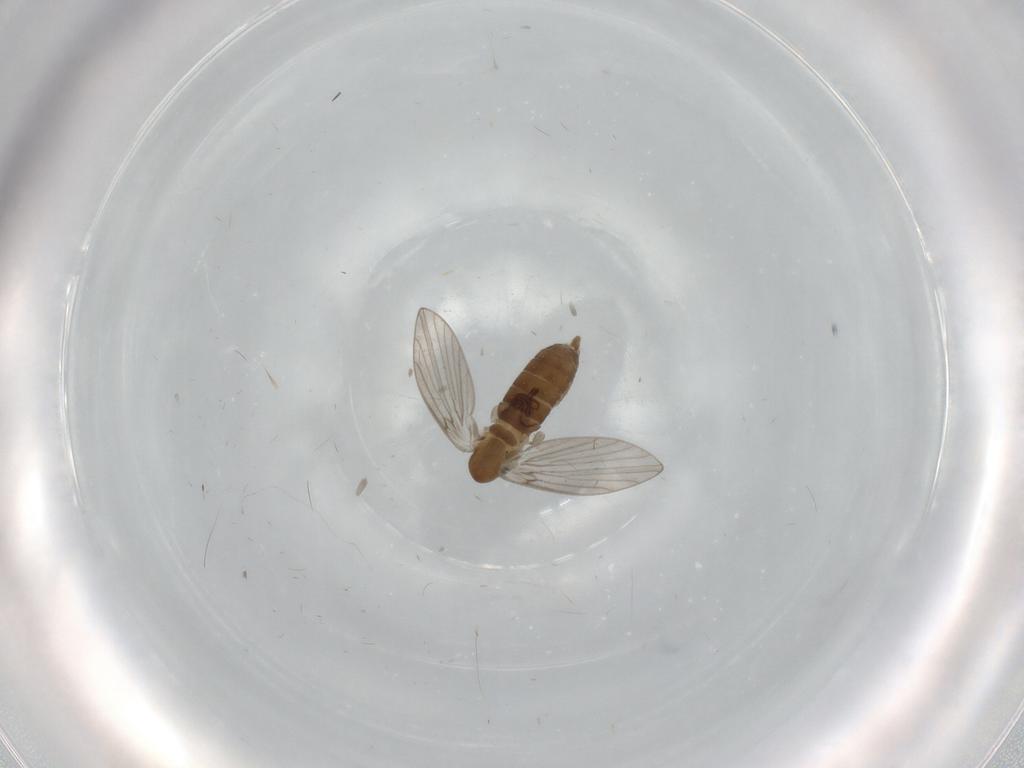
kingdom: Animalia
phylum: Arthropoda
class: Insecta
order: Diptera
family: Psychodidae
